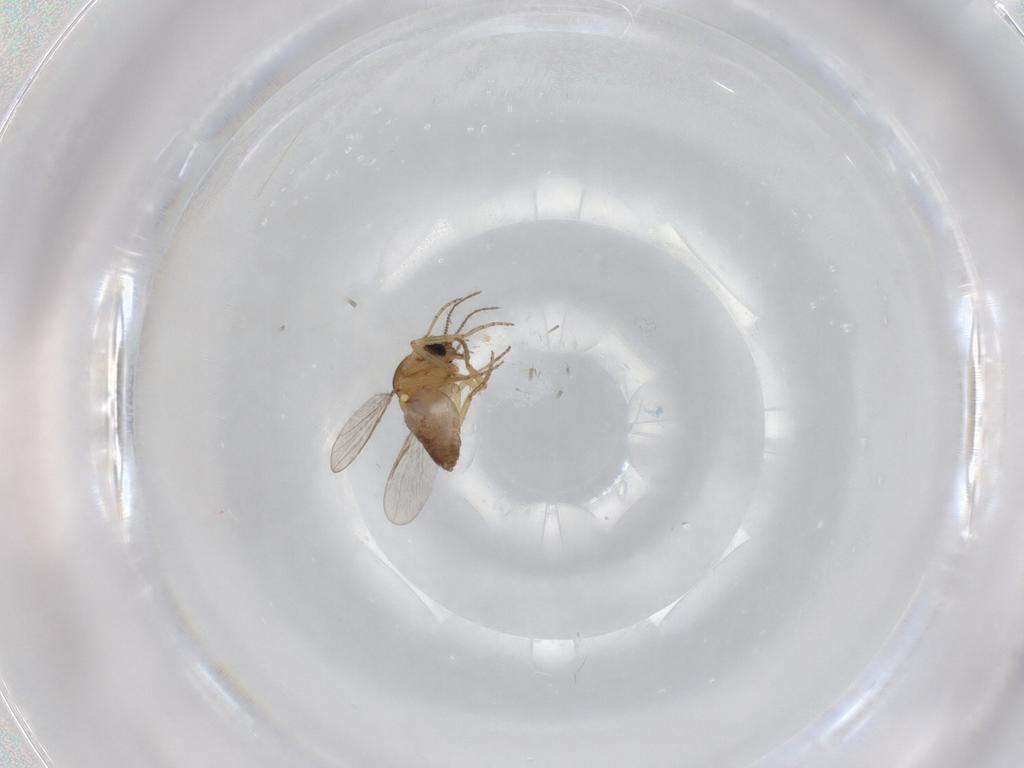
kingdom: Animalia
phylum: Arthropoda
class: Insecta
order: Diptera
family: Ceratopogonidae
